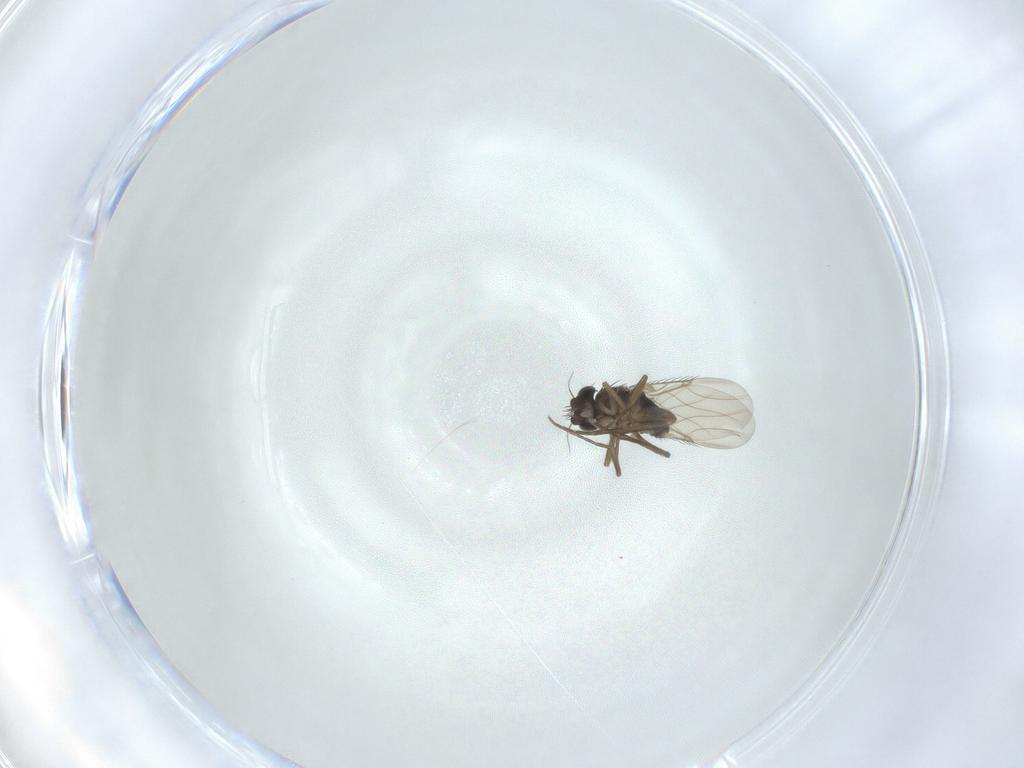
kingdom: Animalia
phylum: Arthropoda
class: Insecta
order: Diptera
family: Phoridae
